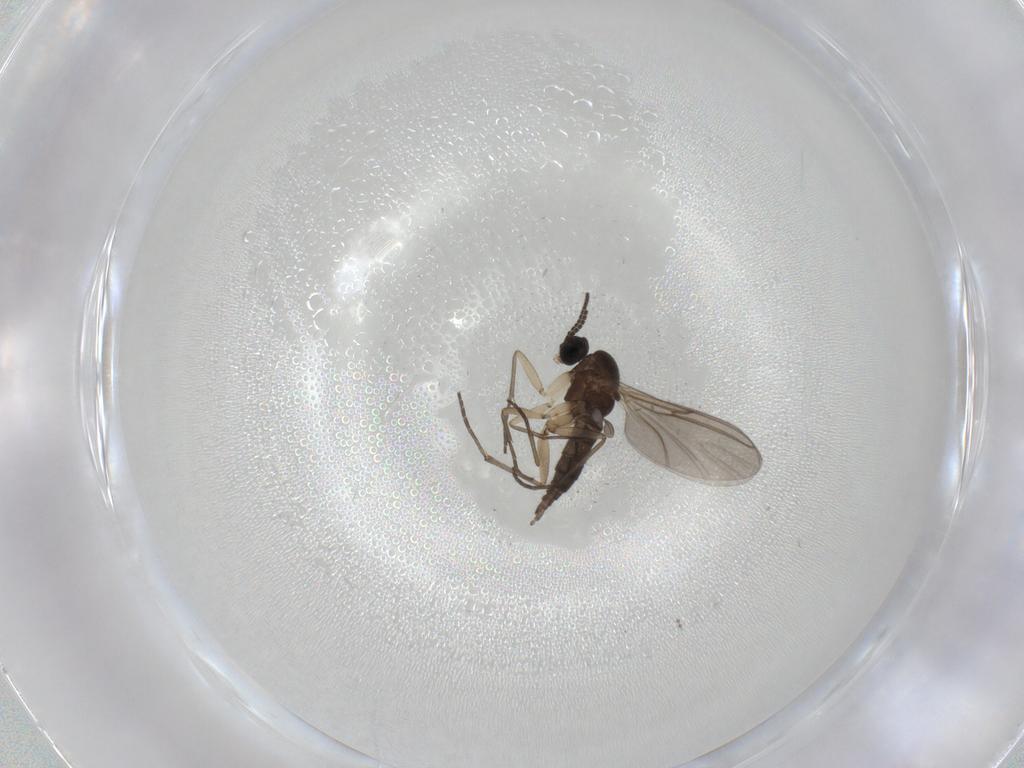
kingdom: Animalia
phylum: Arthropoda
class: Insecta
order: Diptera
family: Sciaridae
